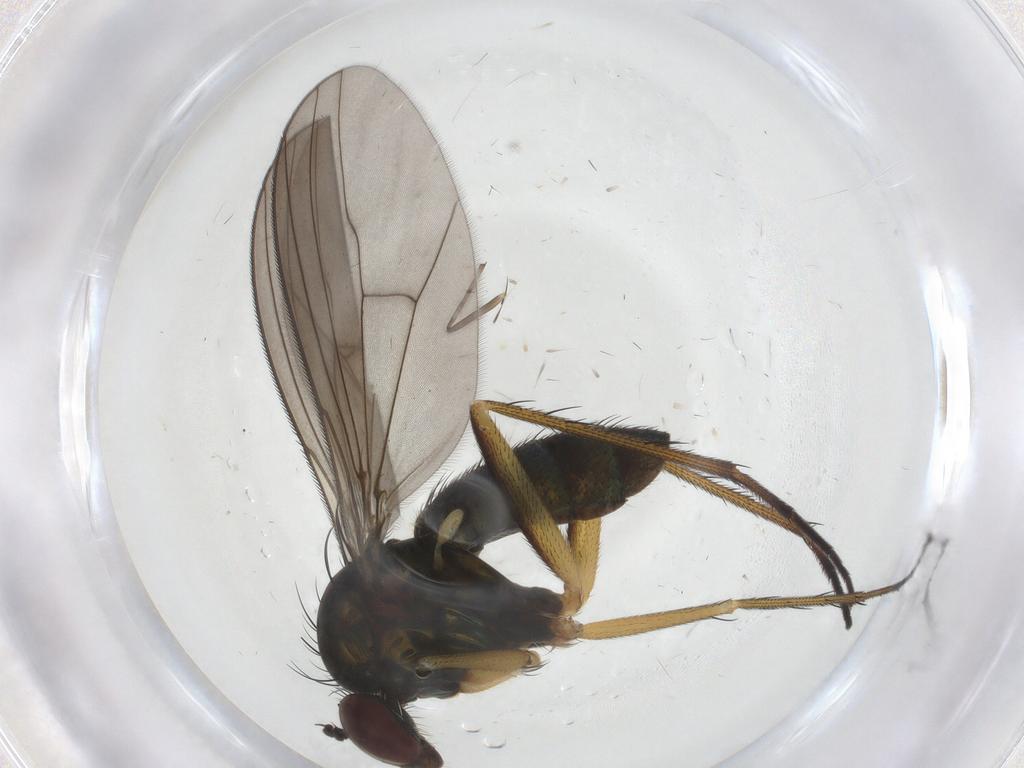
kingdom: Animalia
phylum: Arthropoda
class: Insecta
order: Diptera
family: Dolichopodidae
